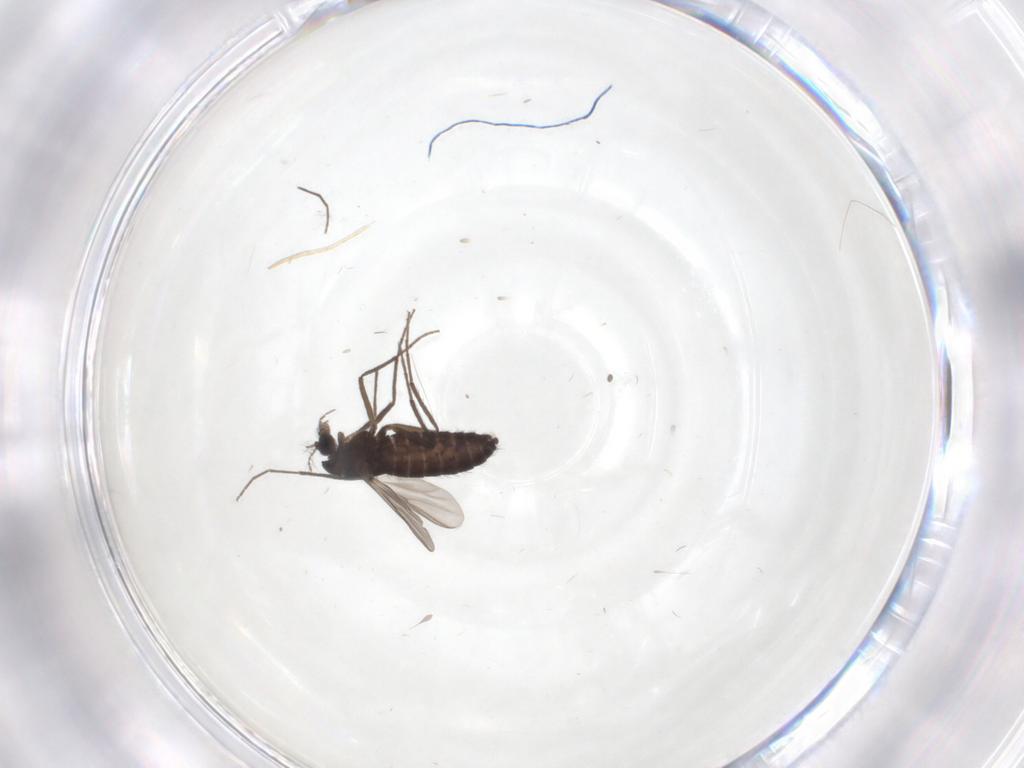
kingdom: Animalia
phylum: Arthropoda
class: Insecta
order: Diptera
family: Chironomidae
